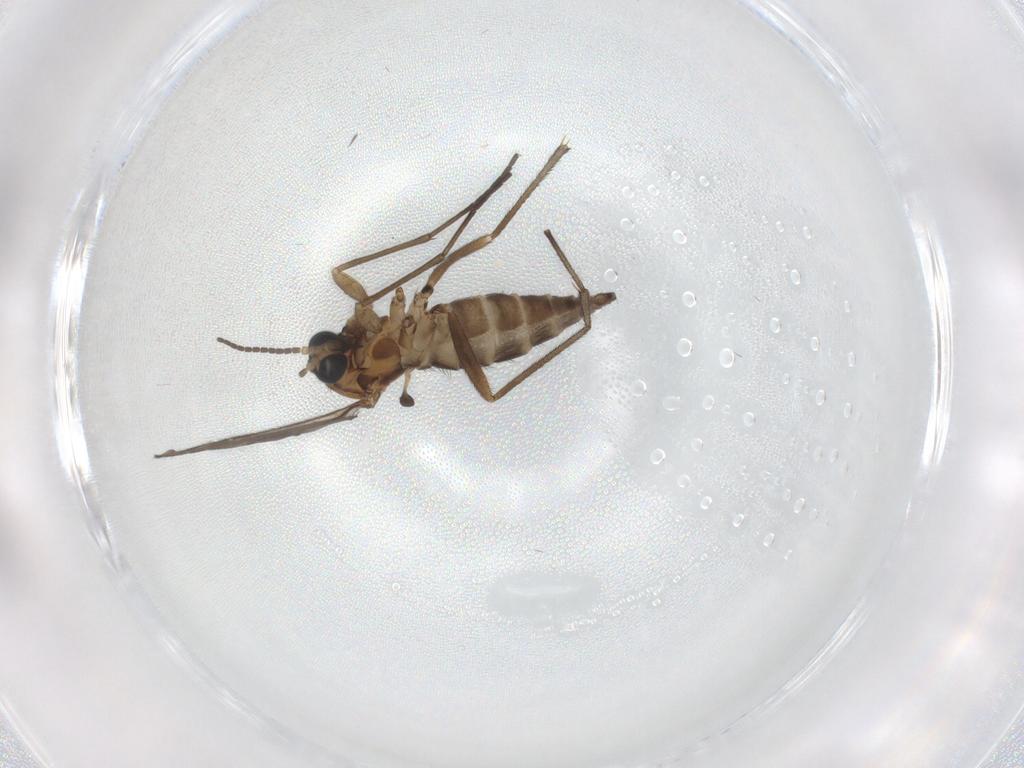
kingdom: Animalia
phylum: Arthropoda
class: Insecta
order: Diptera
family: Sciaridae
